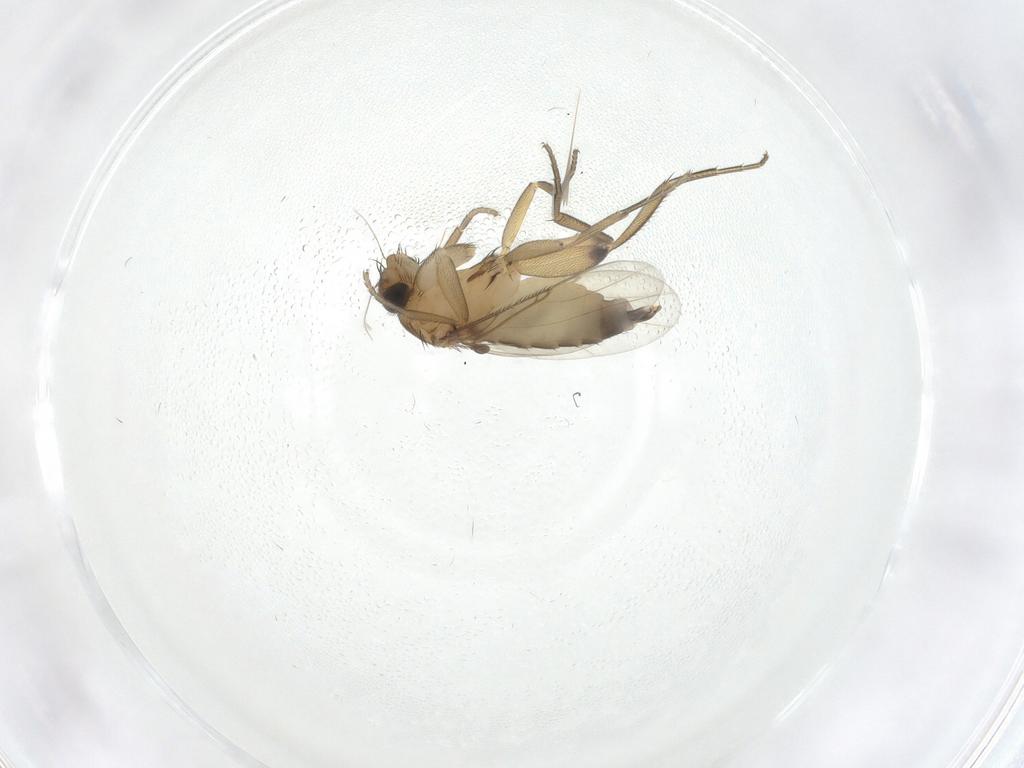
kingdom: Animalia
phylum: Arthropoda
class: Insecta
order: Diptera
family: Phoridae
